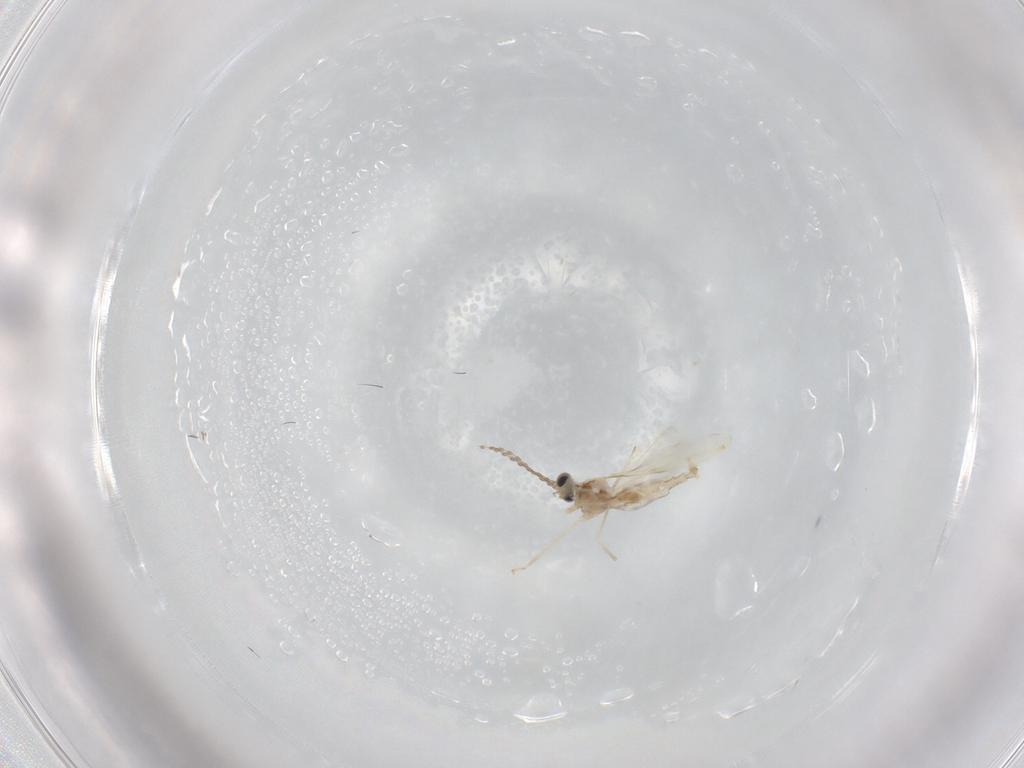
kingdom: Animalia
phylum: Arthropoda
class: Insecta
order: Diptera
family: Cecidomyiidae
